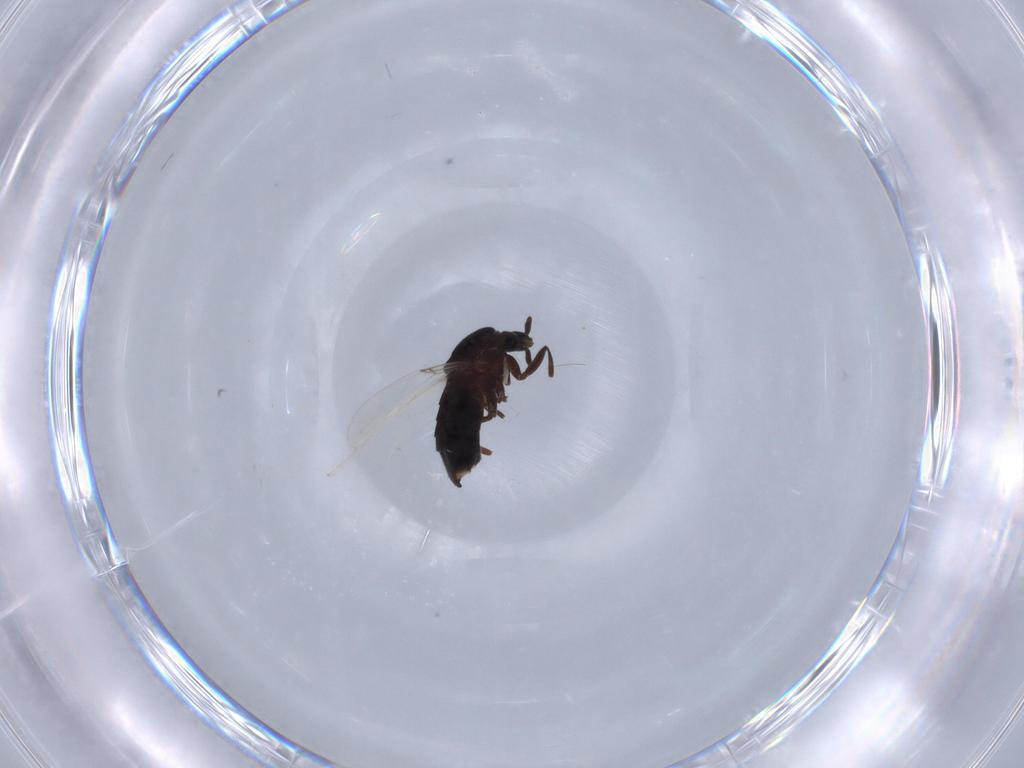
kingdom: Animalia
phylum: Arthropoda
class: Insecta
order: Diptera
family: Scatopsidae
